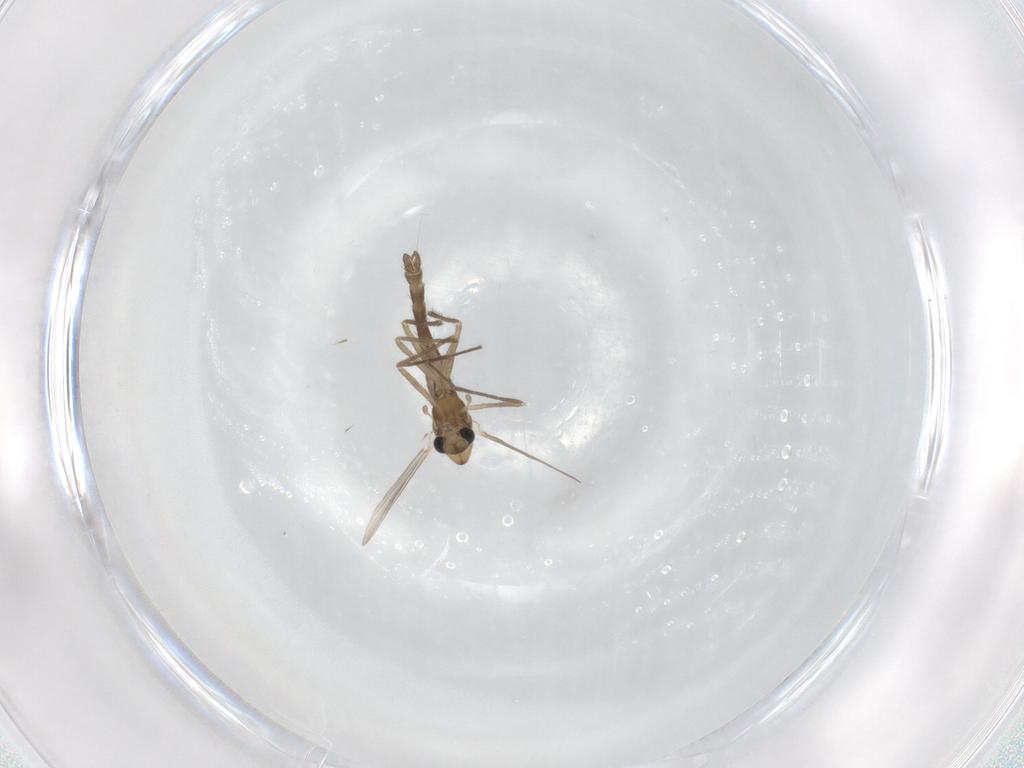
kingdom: Animalia
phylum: Arthropoda
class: Insecta
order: Diptera
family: Chironomidae
